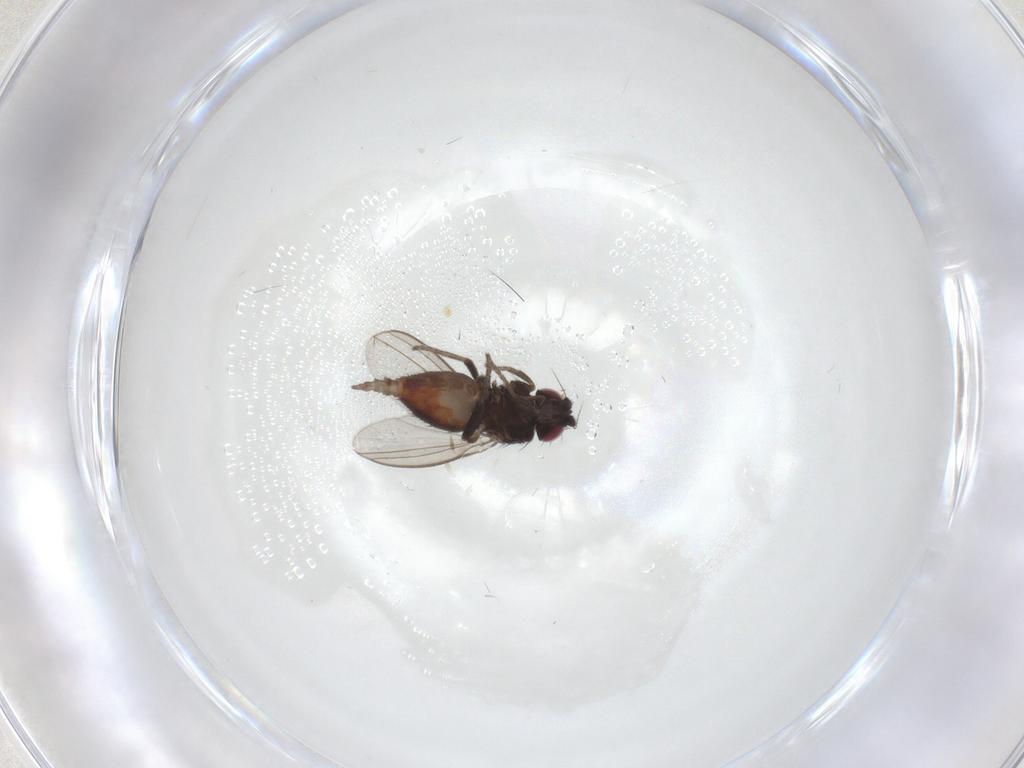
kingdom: Animalia
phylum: Arthropoda
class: Insecta
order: Diptera
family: Milichiidae
